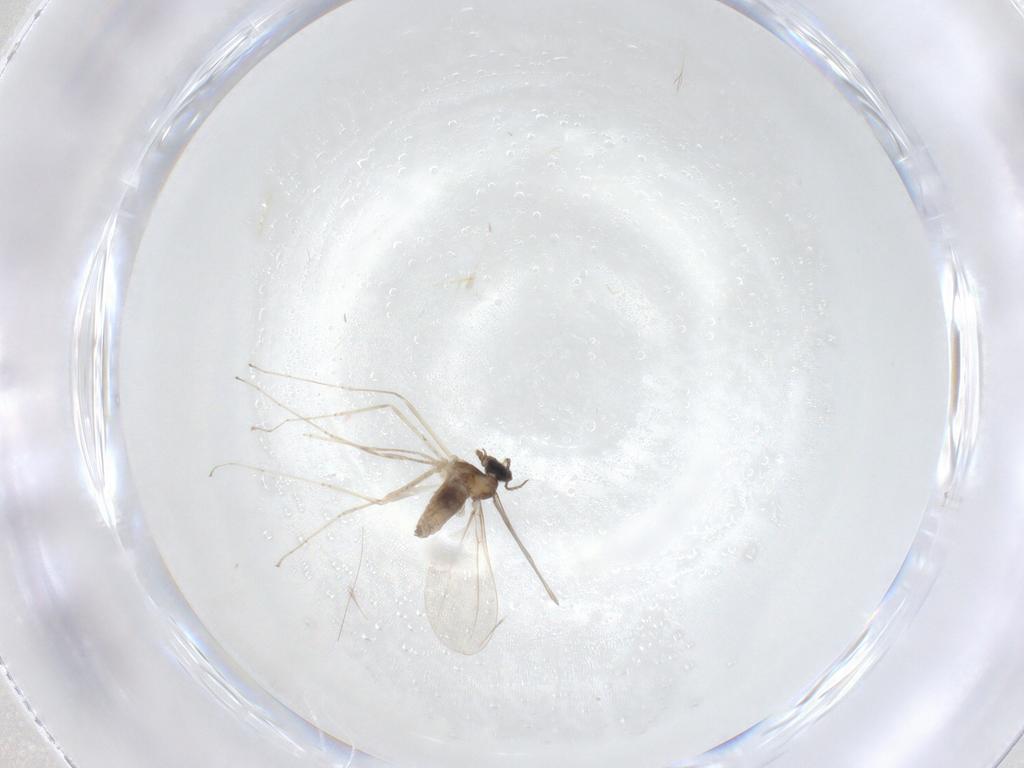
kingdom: Animalia
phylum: Arthropoda
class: Insecta
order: Diptera
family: Cecidomyiidae
